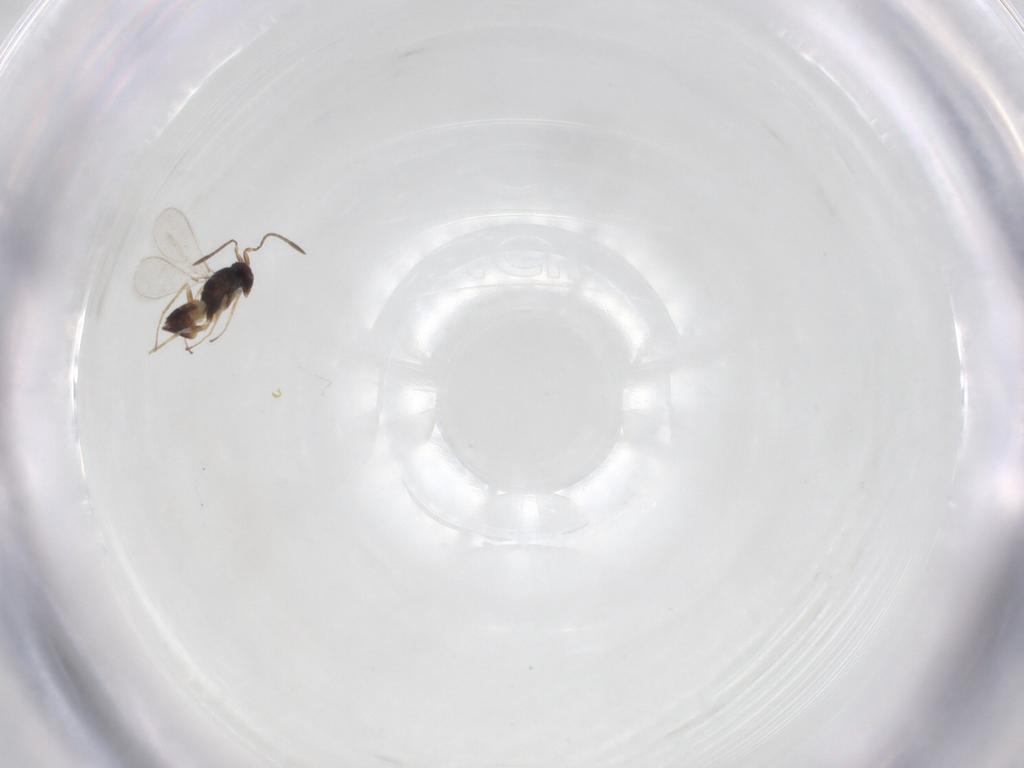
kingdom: Animalia
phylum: Arthropoda
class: Insecta
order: Hymenoptera
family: Mymaridae
